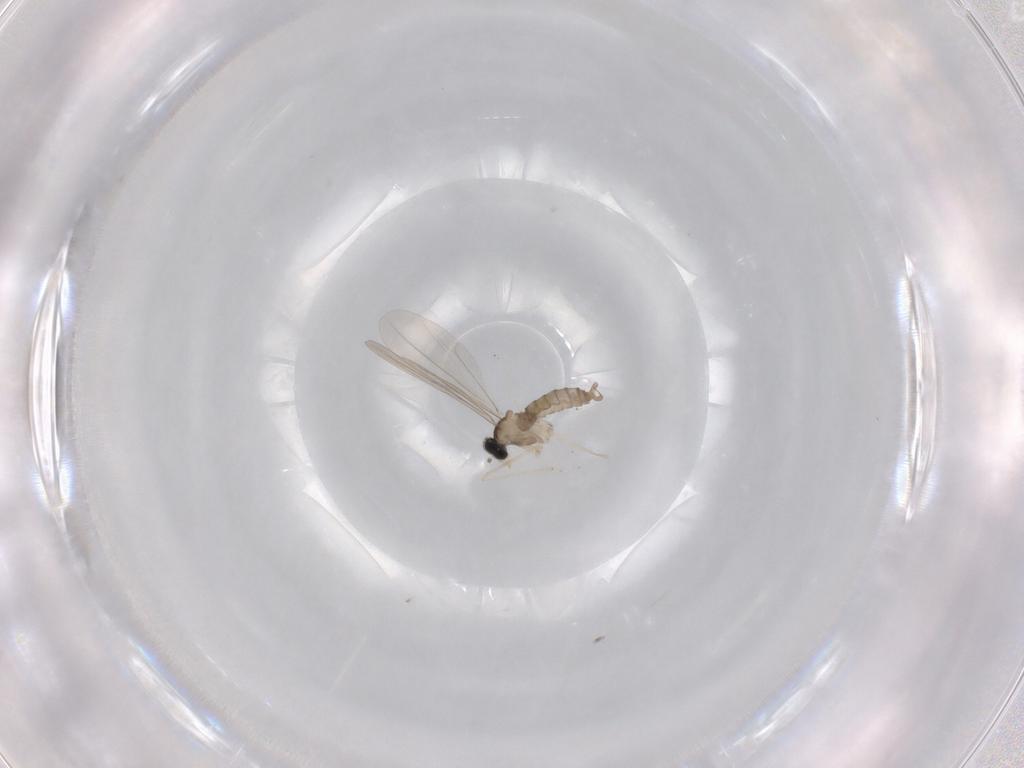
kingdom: Animalia
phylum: Arthropoda
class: Insecta
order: Diptera
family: Cecidomyiidae
